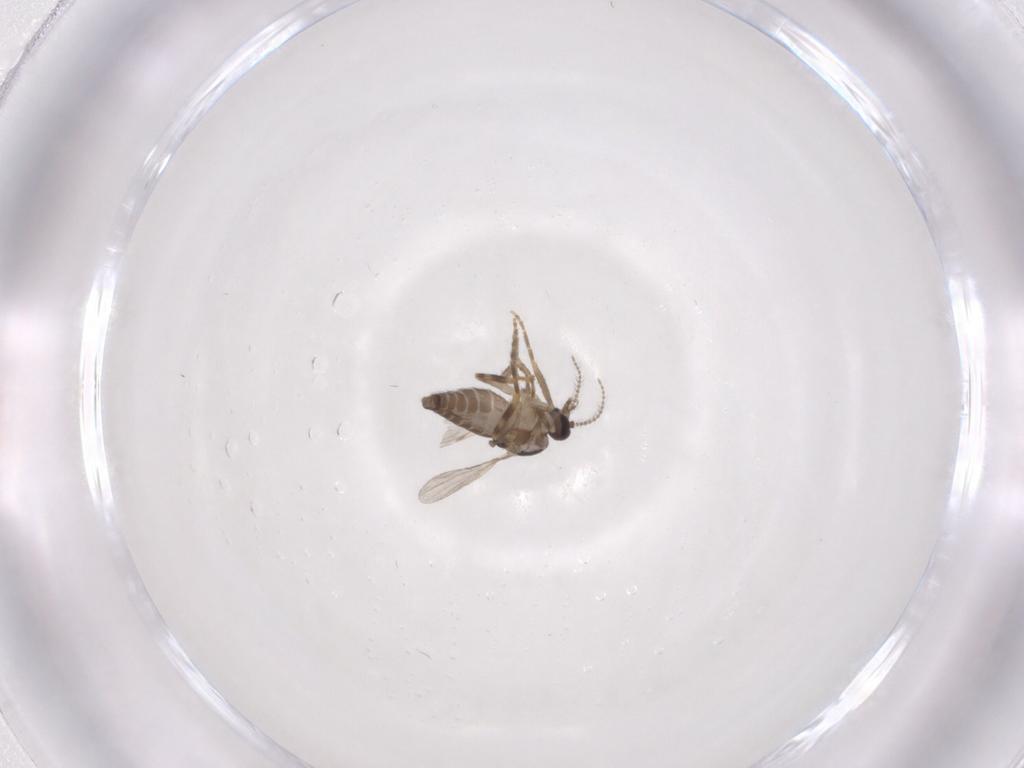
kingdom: Animalia
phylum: Arthropoda
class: Insecta
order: Diptera
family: Ceratopogonidae
